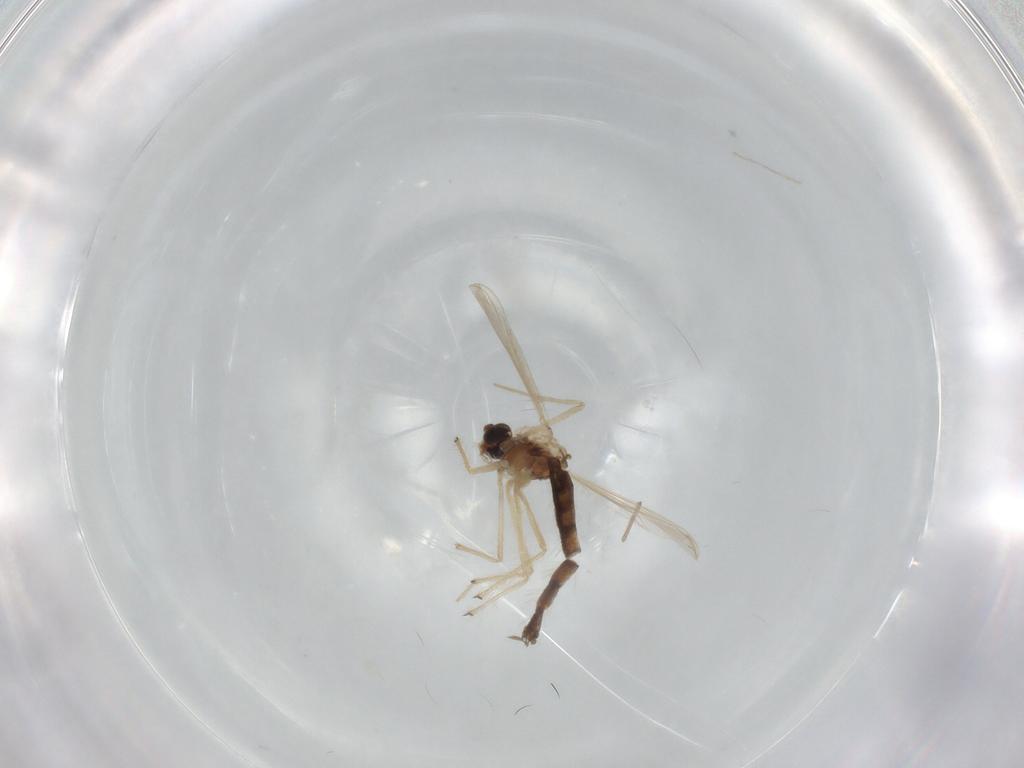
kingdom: Animalia
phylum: Arthropoda
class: Insecta
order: Diptera
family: Chironomidae
